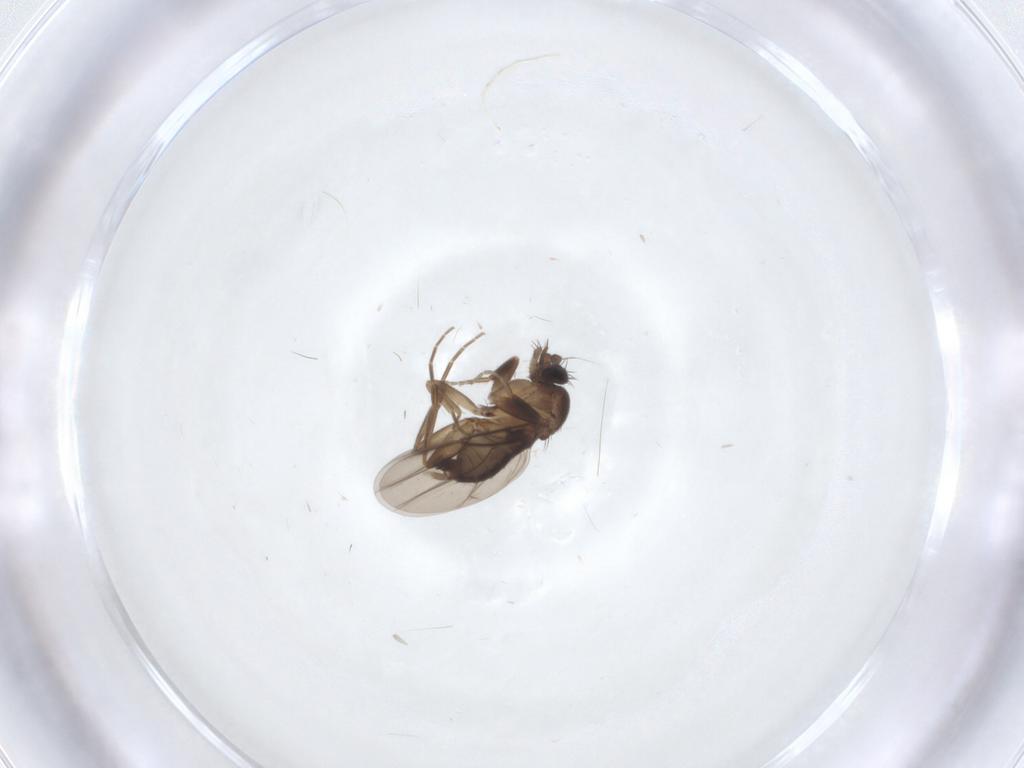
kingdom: Animalia
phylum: Arthropoda
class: Insecta
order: Diptera
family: Phoridae
